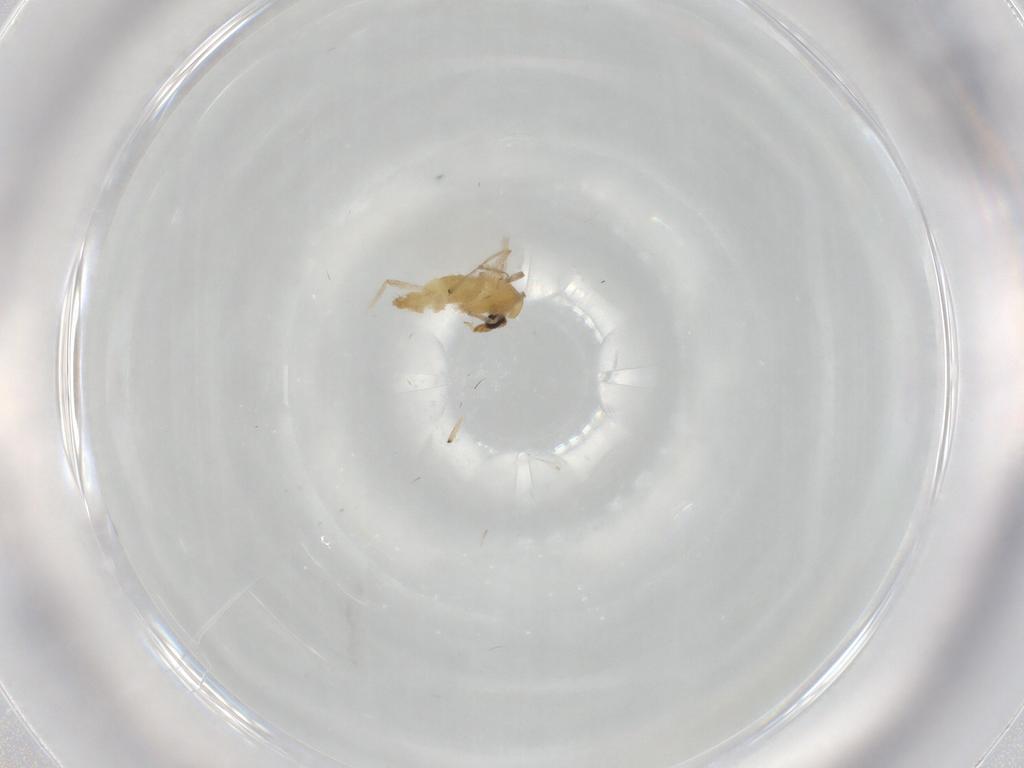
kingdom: Animalia
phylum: Arthropoda
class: Insecta
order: Diptera
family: Chironomidae
